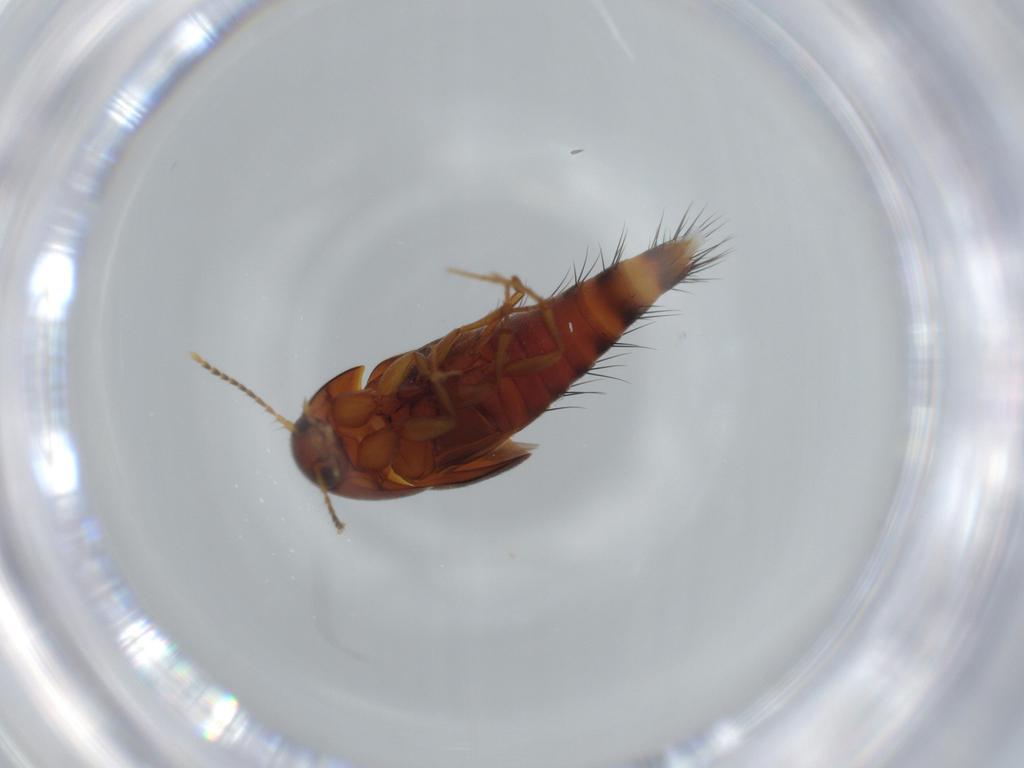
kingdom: Animalia
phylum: Arthropoda
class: Insecta
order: Coleoptera
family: Staphylinidae
